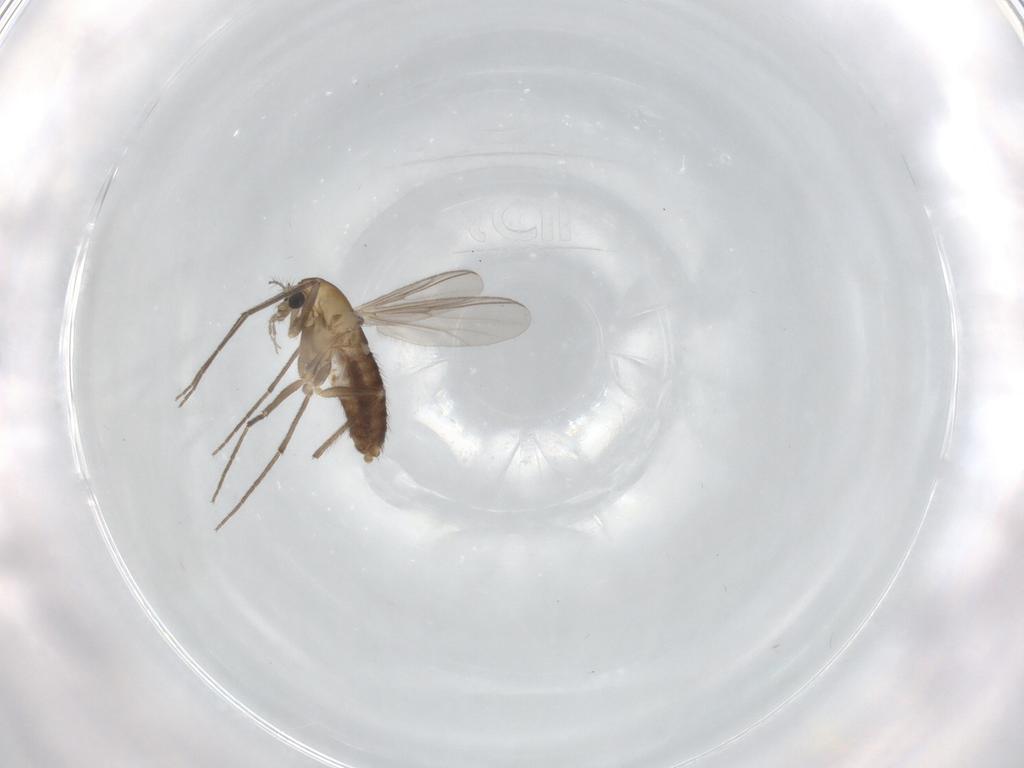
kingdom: Animalia
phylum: Arthropoda
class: Insecta
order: Diptera
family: Chironomidae
